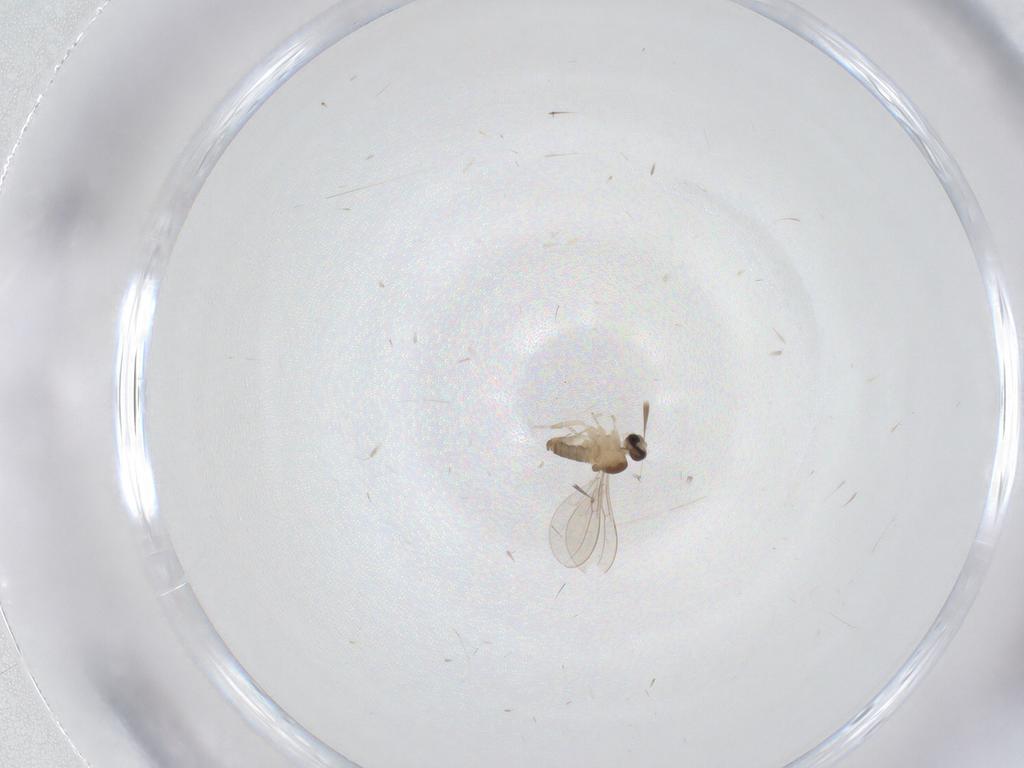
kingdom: Animalia
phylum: Arthropoda
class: Insecta
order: Diptera
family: Cecidomyiidae
